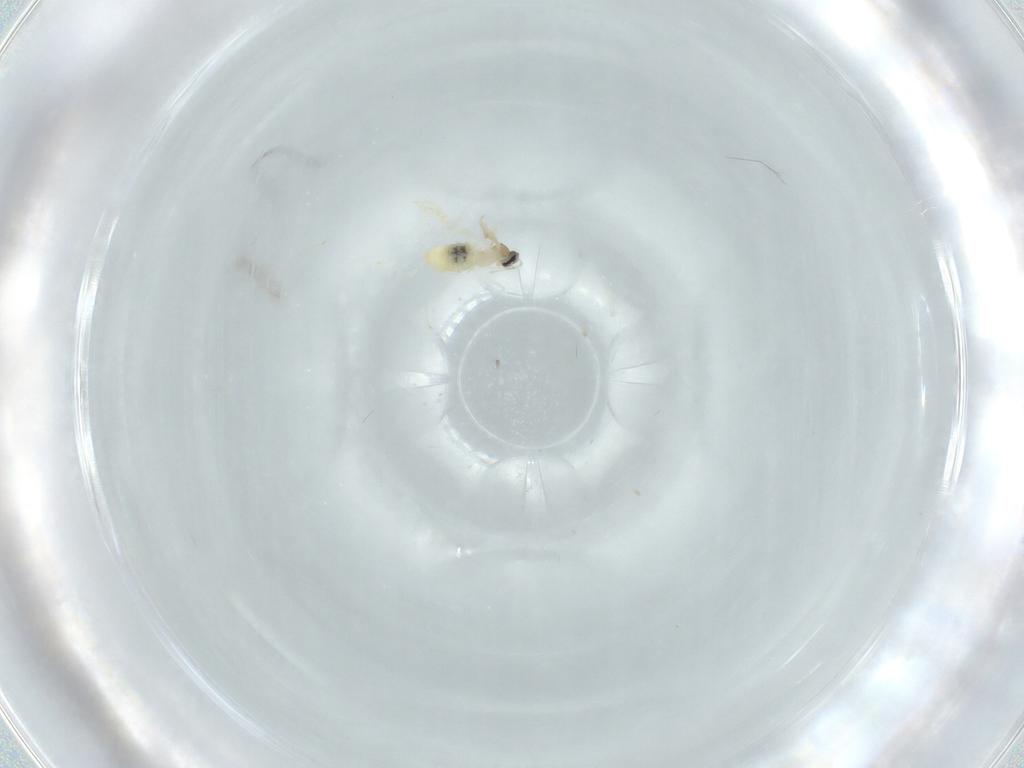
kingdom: Animalia
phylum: Arthropoda
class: Insecta
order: Diptera
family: Cecidomyiidae
